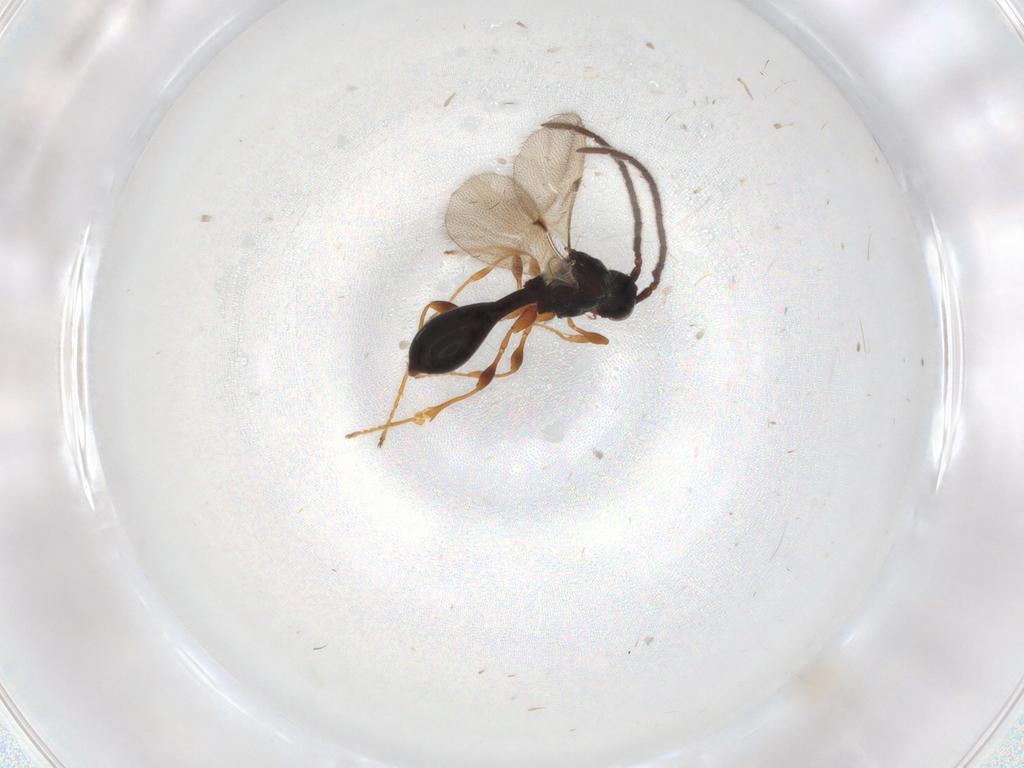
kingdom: Animalia
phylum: Arthropoda
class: Insecta
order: Hymenoptera
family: Diapriidae
